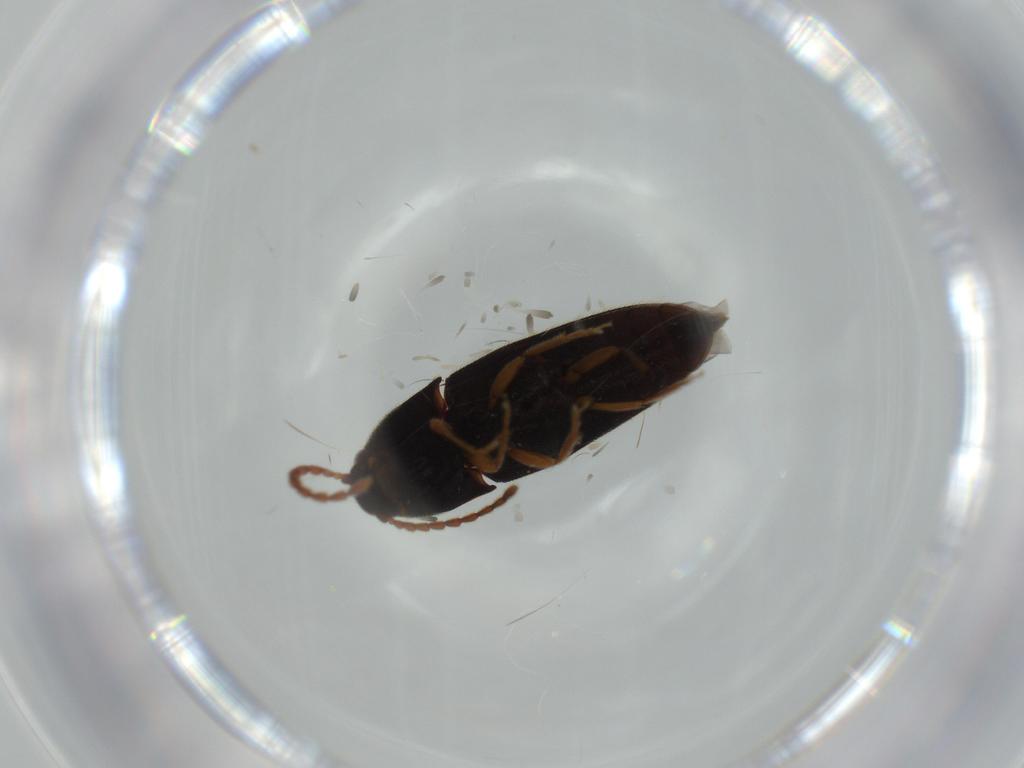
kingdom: Animalia
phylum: Arthropoda
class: Insecta
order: Coleoptera
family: Elateridae
